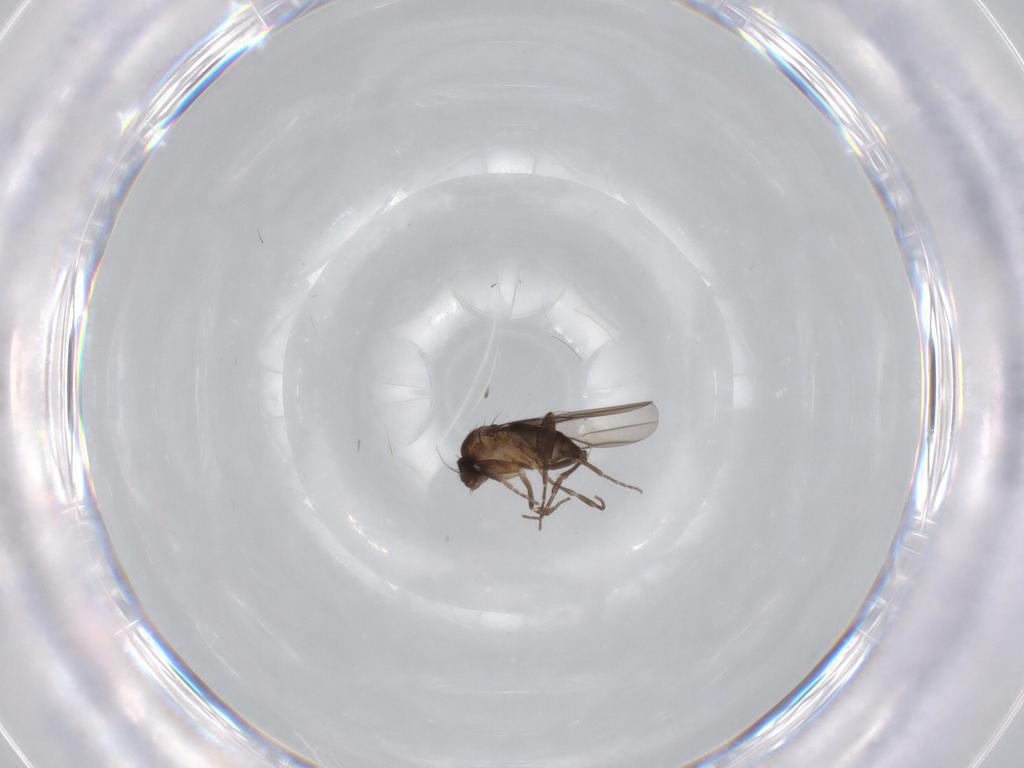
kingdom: Animalia
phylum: Arthropoda
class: Insecta
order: Diptera
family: Phoridae
